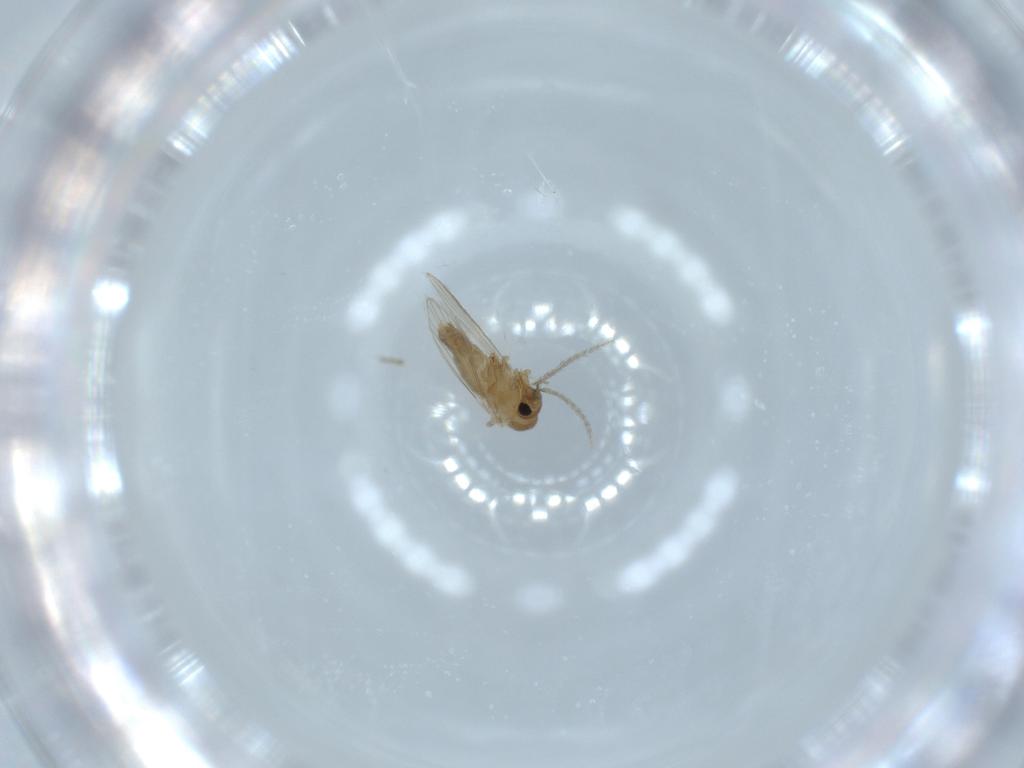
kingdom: Animalia
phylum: Arthropoda
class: Insecta
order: Diptera
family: Psychodidae
